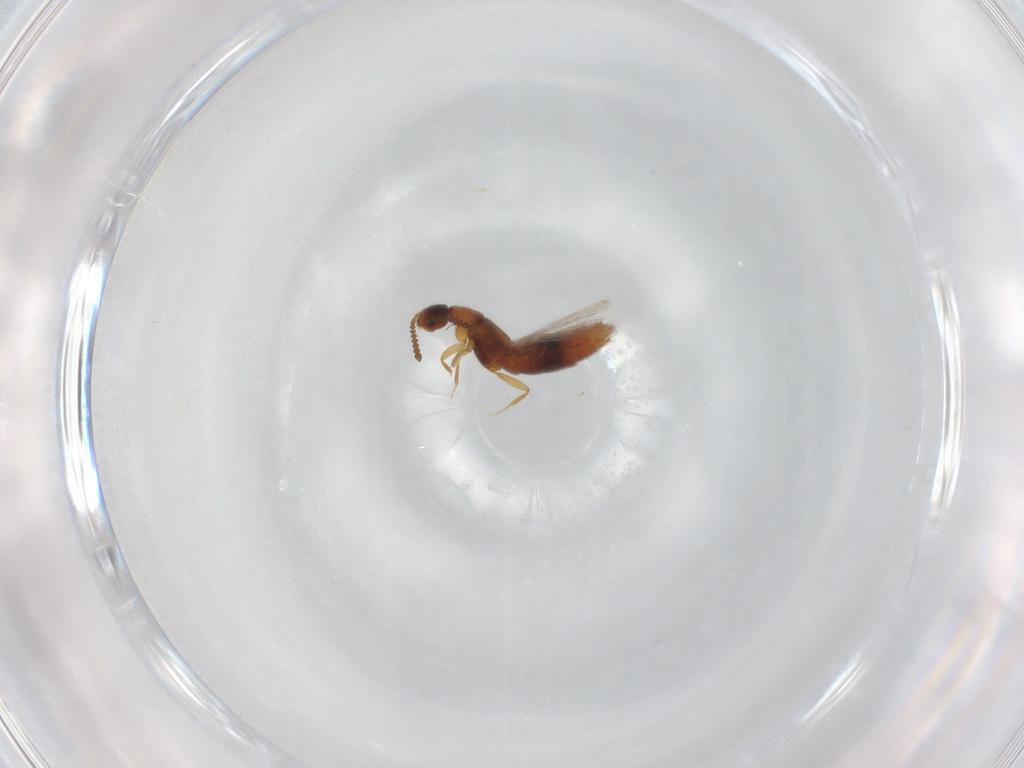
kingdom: Animalia
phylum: Arthropoda
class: Insecta
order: Coleoptera
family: Staphylinidae
